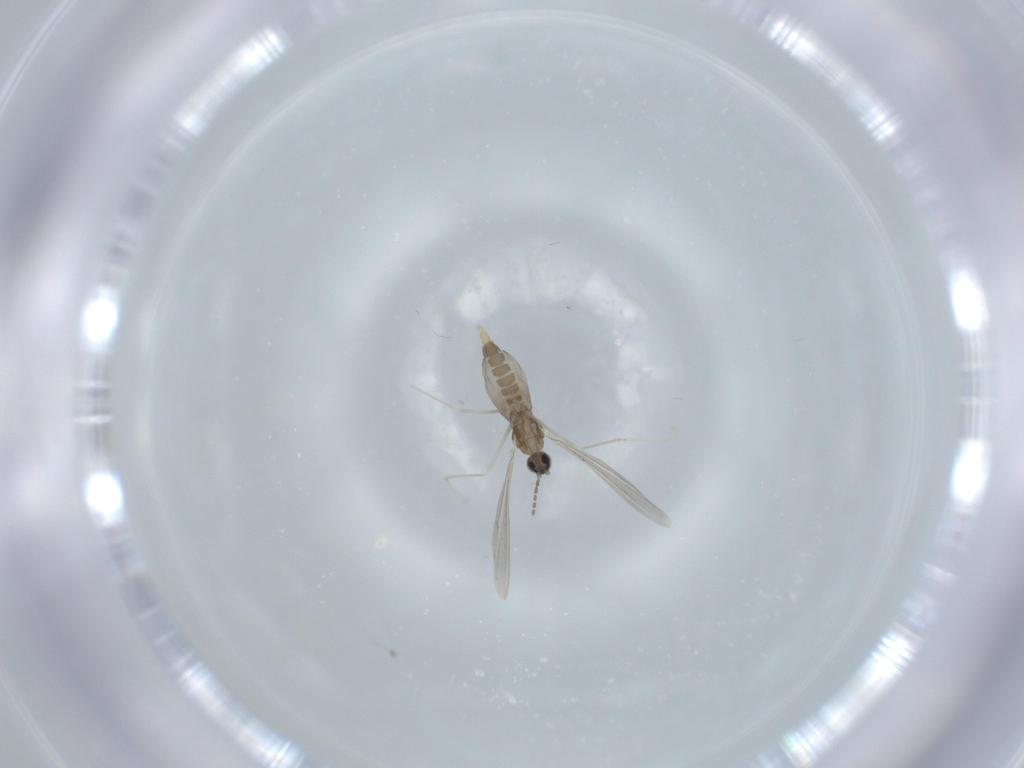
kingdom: Animalia
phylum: Arthropoda
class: Insecta
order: Diptera
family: Cecidomyiidae
